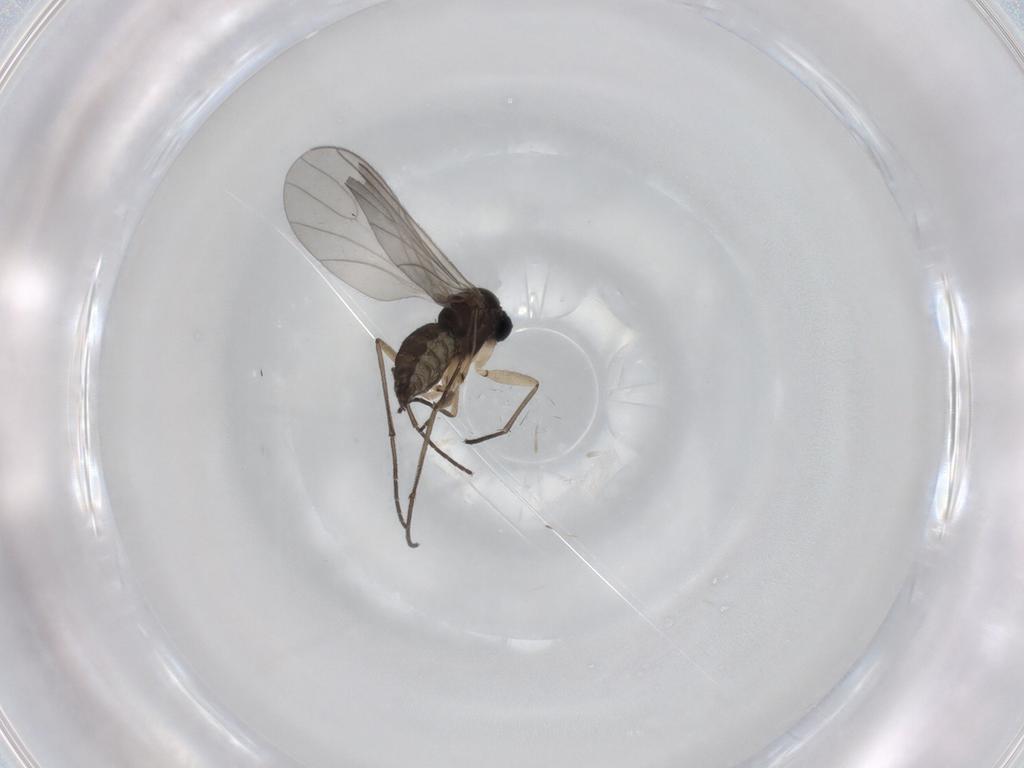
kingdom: Animalia
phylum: Arthropoda
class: Insecta
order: Diptera
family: Sciaridae
